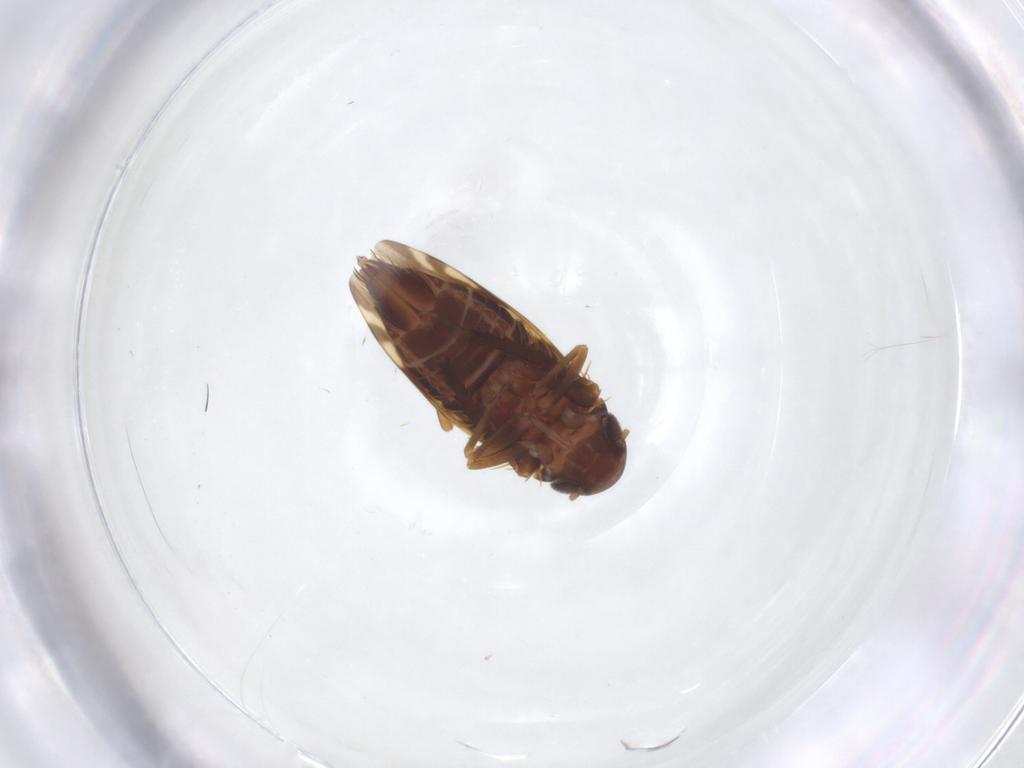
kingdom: Animalia
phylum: Arthropoda
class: Insecta
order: Hemiptera
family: Cicadellidae
